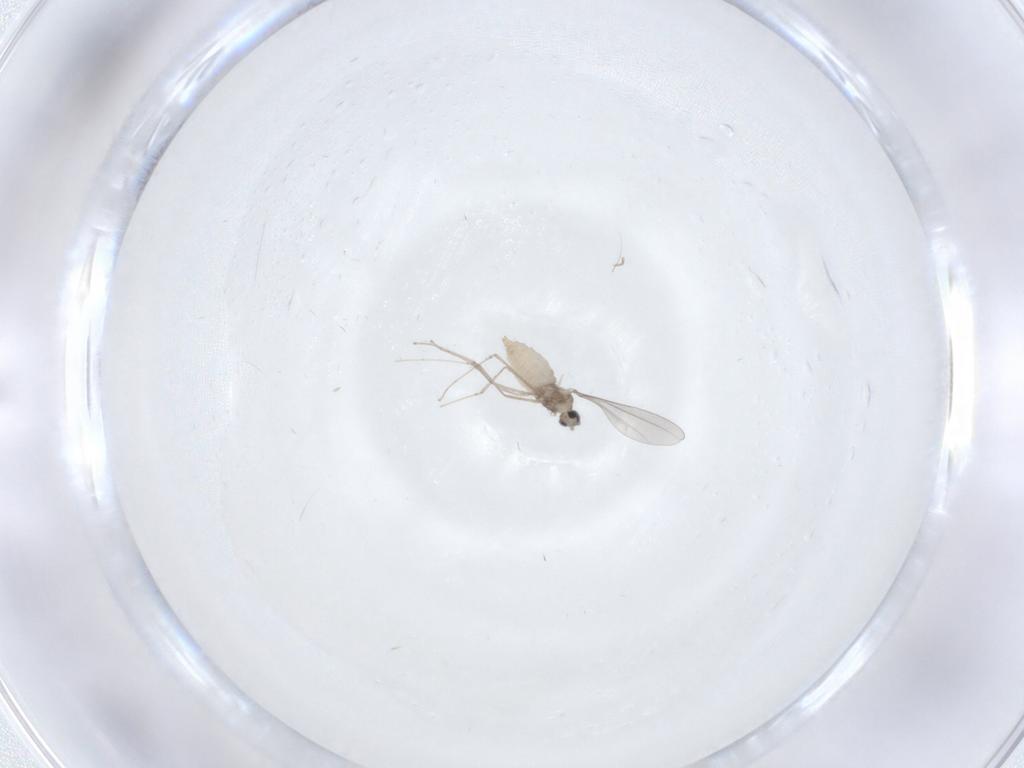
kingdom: Animalia
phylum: Arthropoda
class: Insecta
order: Diptera
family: Cecidomyiidae
